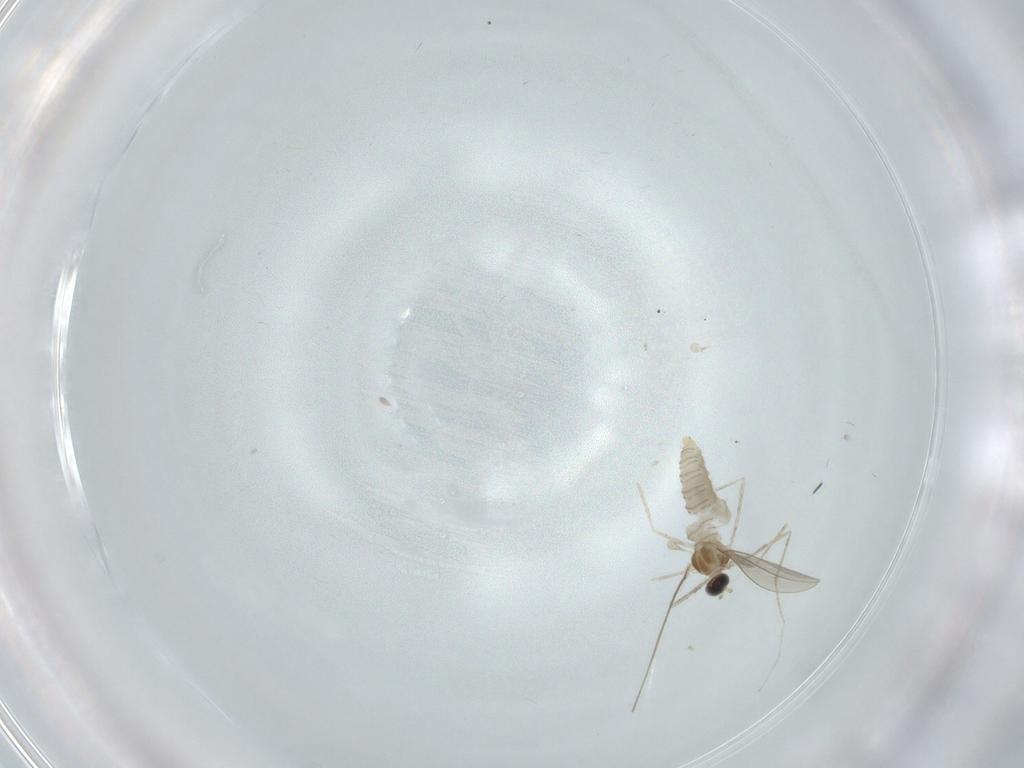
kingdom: Animalia
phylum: Arthropoda
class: Insecta
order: Diptera
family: Cecidomyiidae
